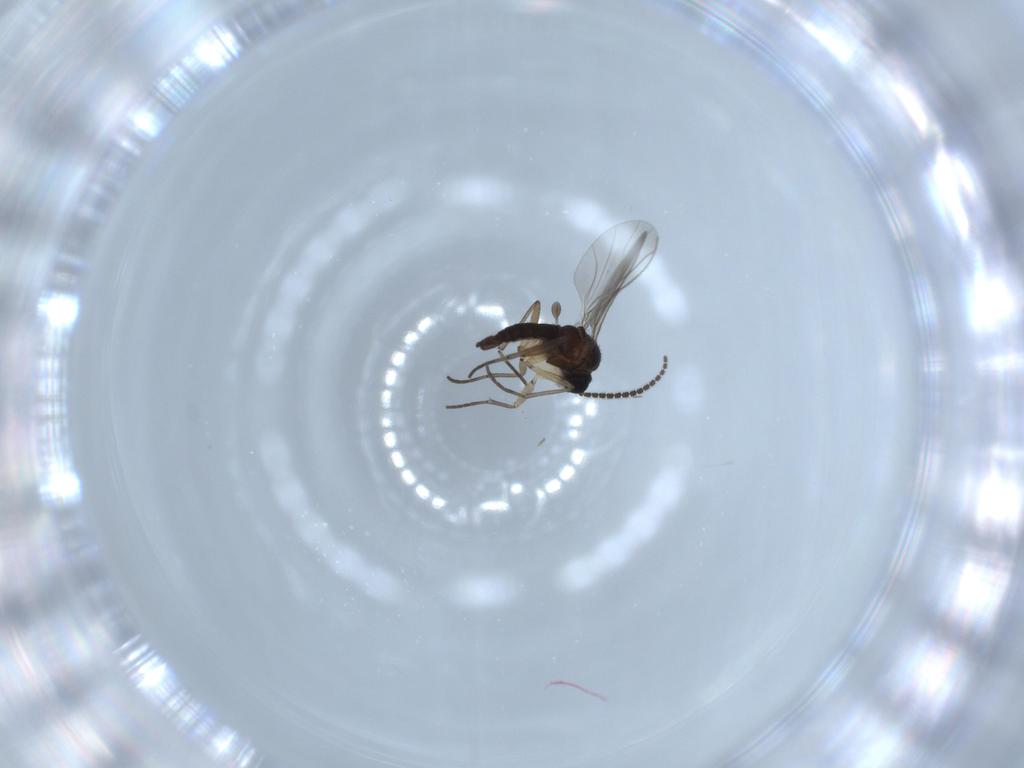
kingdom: Animalia
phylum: Arthropoda
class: Insecta
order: Diptera
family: Sciaridae
